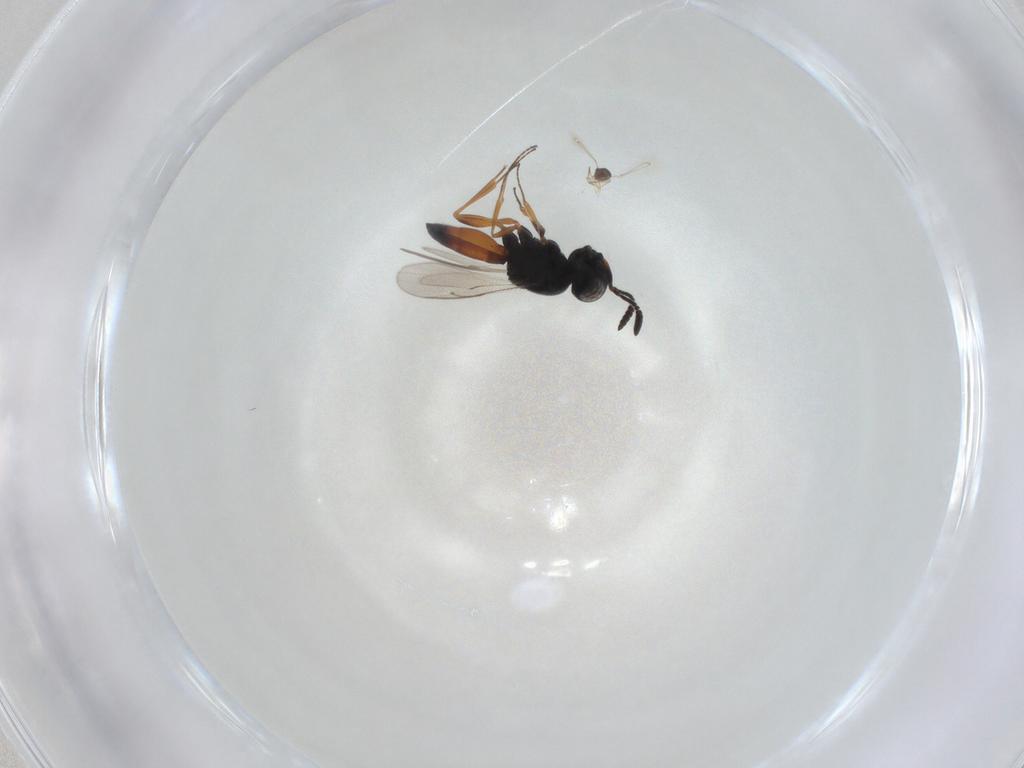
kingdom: Animalia
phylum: Arthropoda
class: Insecta
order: Hymenoptera
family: Scelionidae
